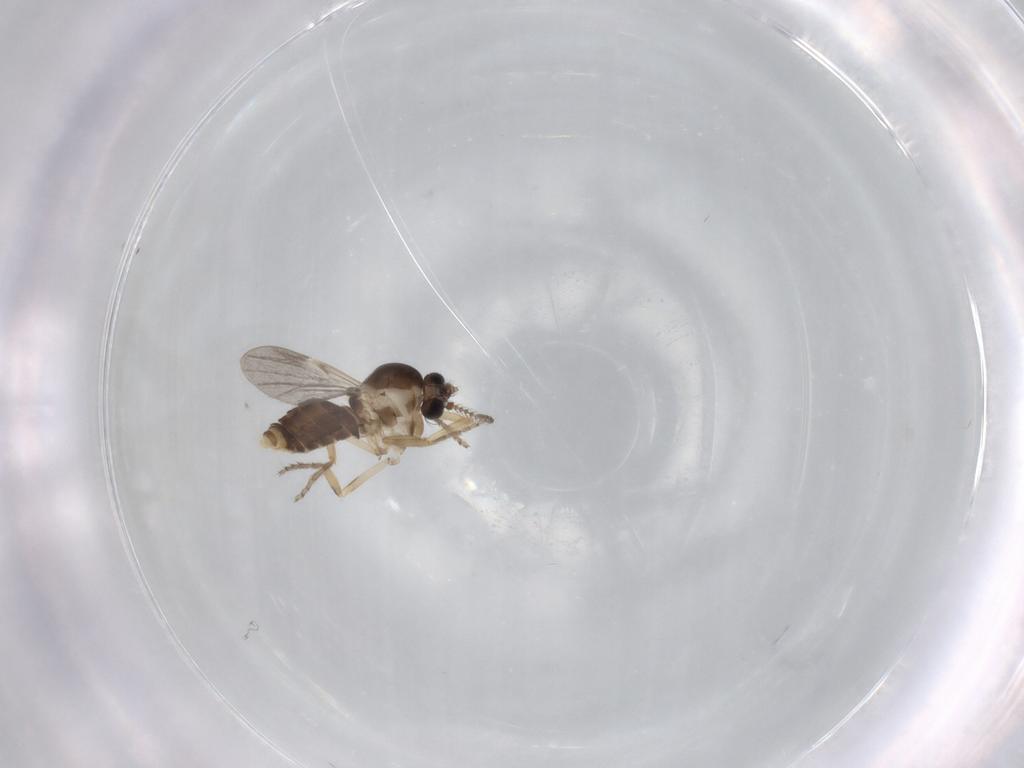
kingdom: Animalia
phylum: Arthropoda
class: Insecta
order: Diptera
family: Ceratopogonidae
